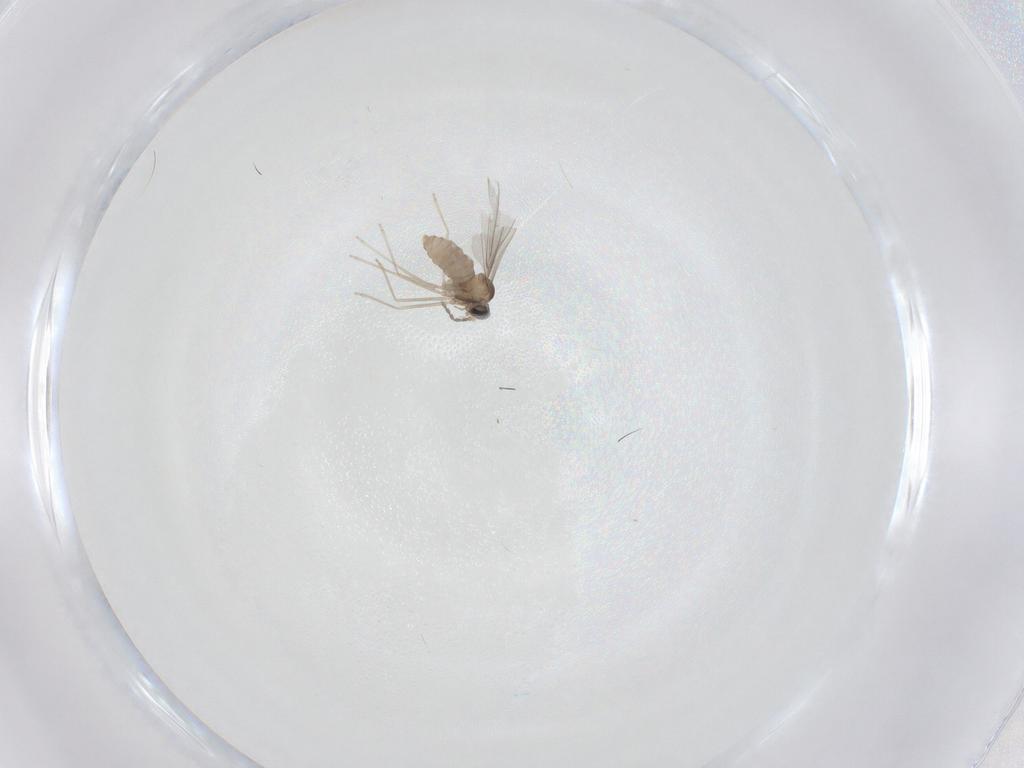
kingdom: Animalia
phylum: Arthropoda
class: Insecta
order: Diptera
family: Cecidomyiidae
